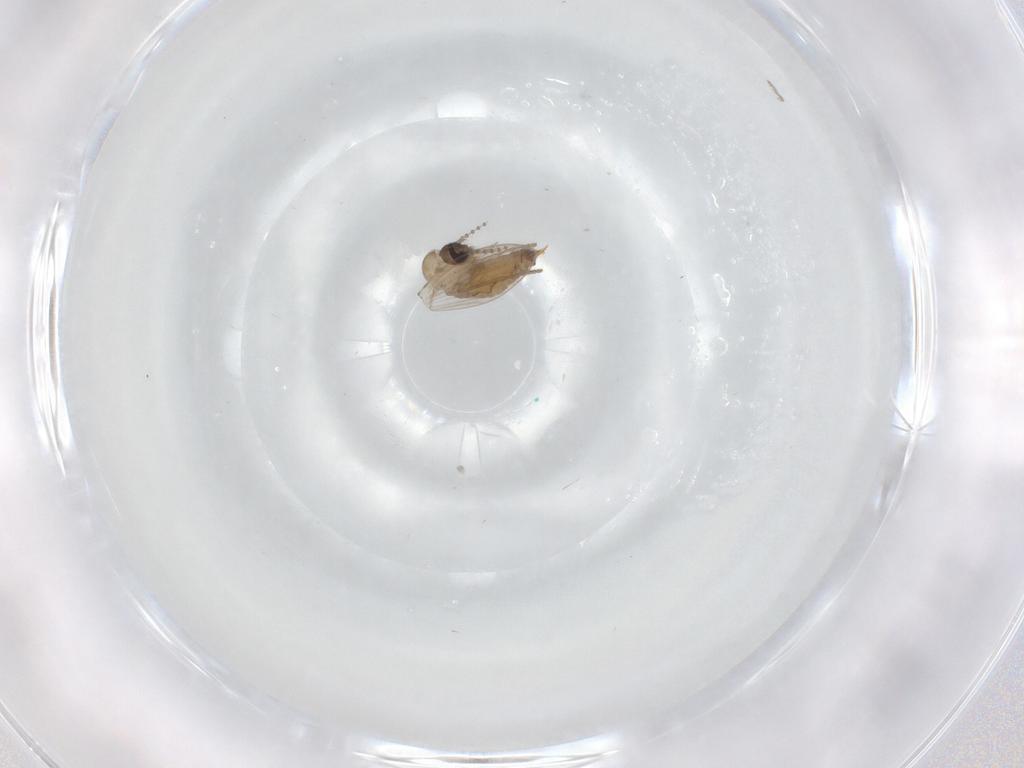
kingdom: Animalia
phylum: Arthropoda
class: Insecta
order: Diptera
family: Psychodidae
